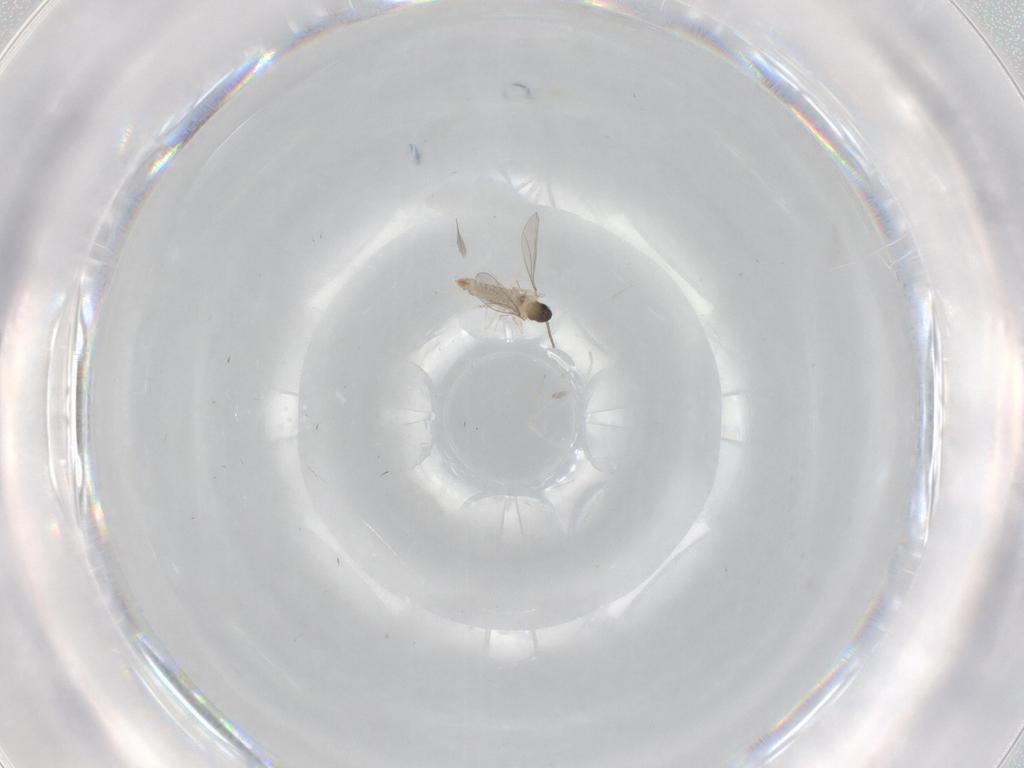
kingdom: Animalia
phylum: Arthropoda
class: Insecta
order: Diptera
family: Cecidomyiidae
